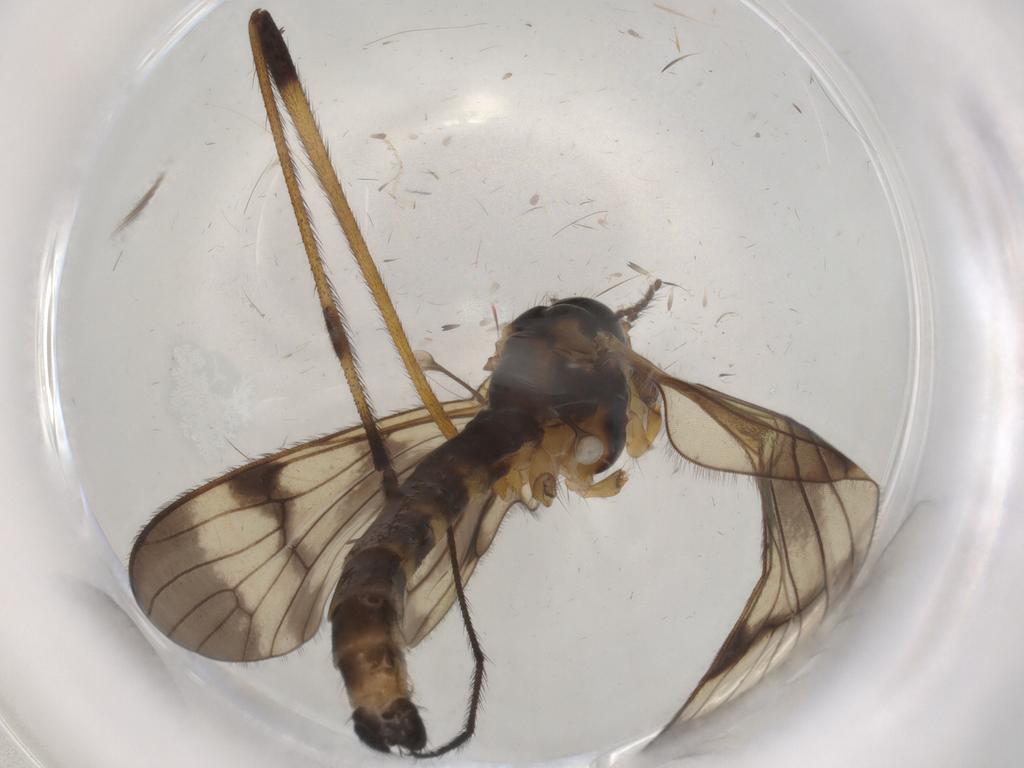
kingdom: Animalia
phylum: Arthropoda
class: Insecta
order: Diptera
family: Limoniidae
